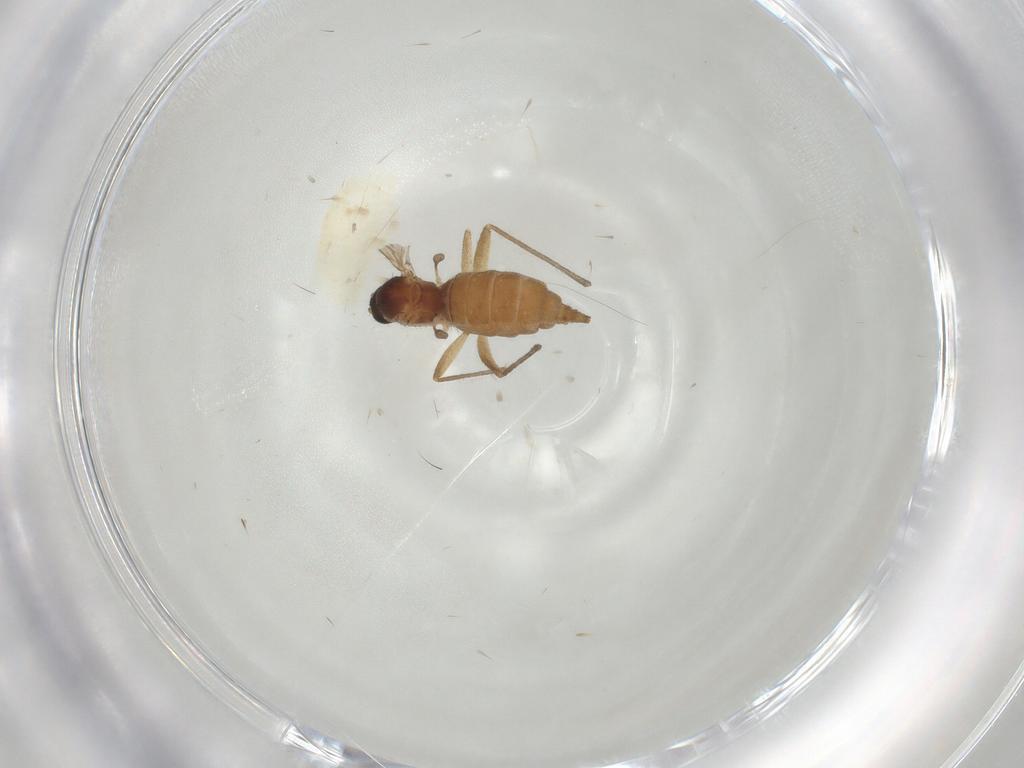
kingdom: Animalia
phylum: Arthropoda
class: Insecta
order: Diptera
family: Sciaridae
